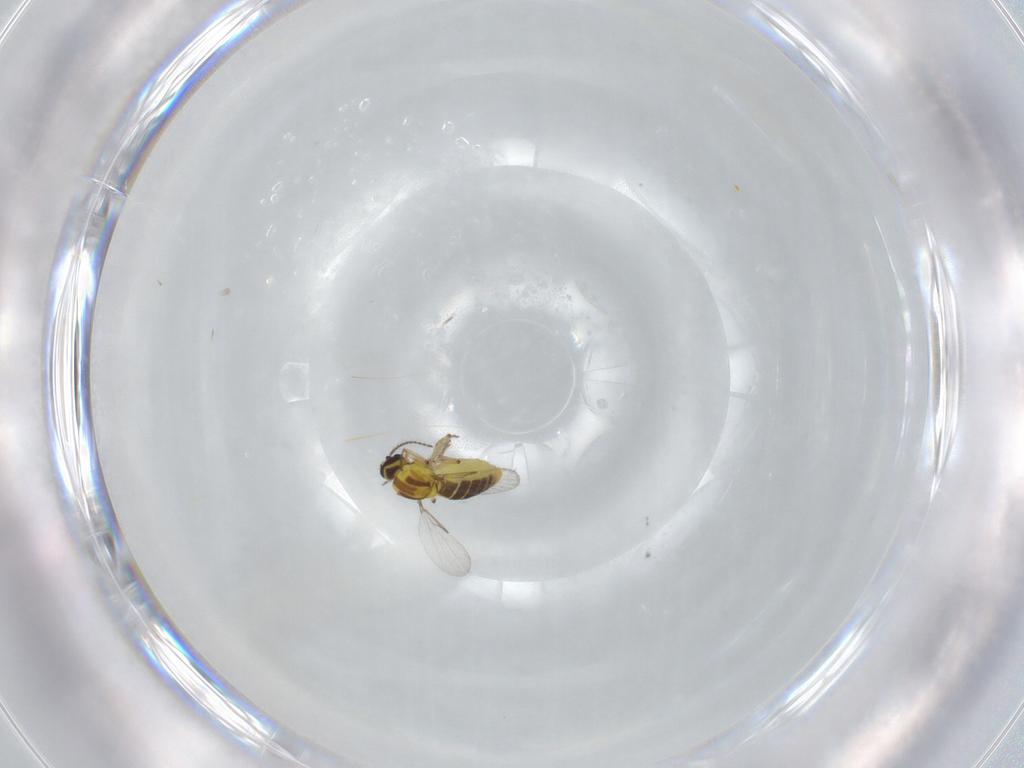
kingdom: Animalia
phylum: Arthropoda
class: Insecta
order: Diptera
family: Ceratopogonidae
